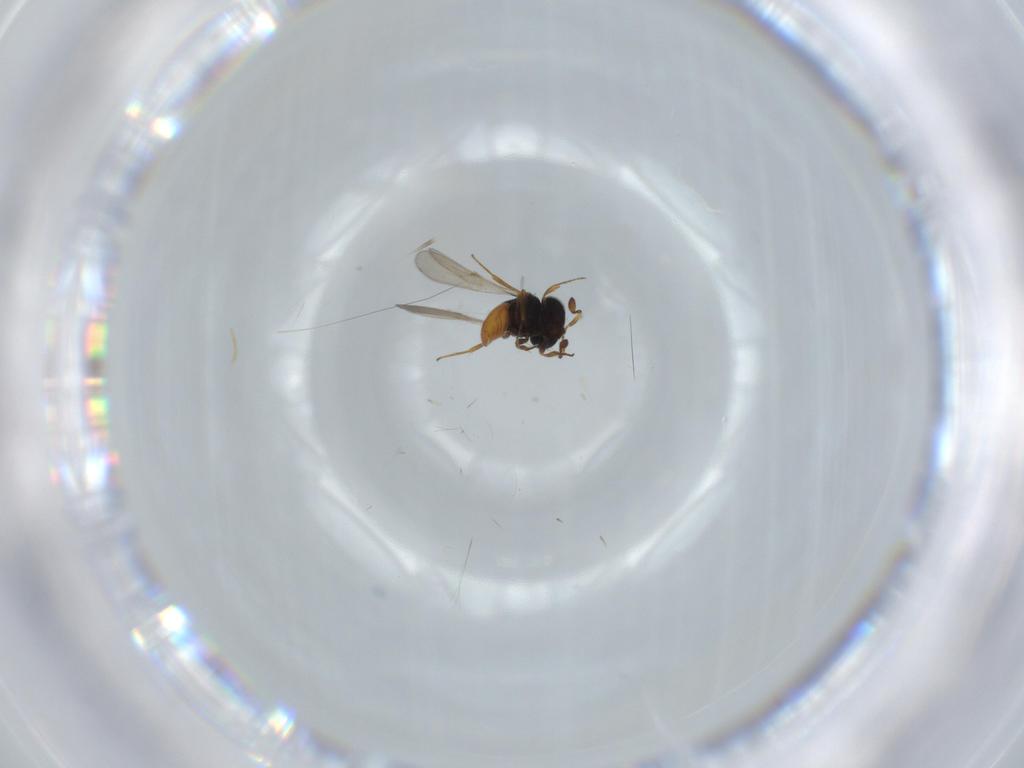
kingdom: Animalia
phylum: Arthropoda
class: Insecta
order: Hymenoptera
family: Scelionidae
